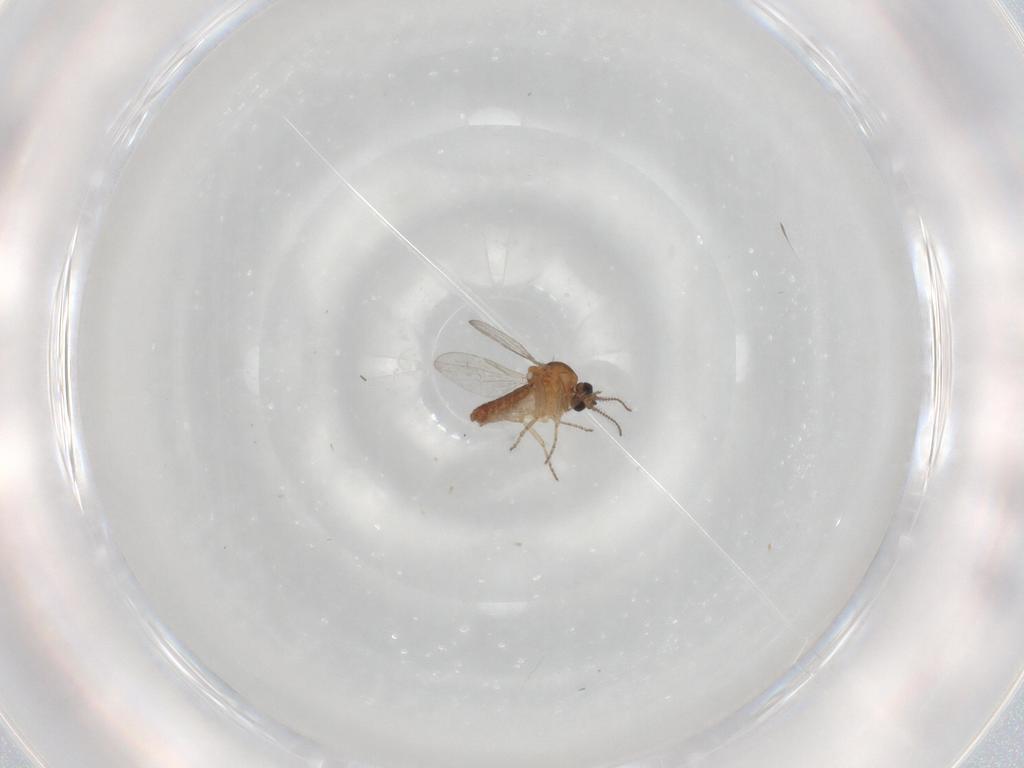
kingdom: Animalia
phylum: Arthropoda
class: Insecta
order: Diptera
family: Ceratopogonidae
